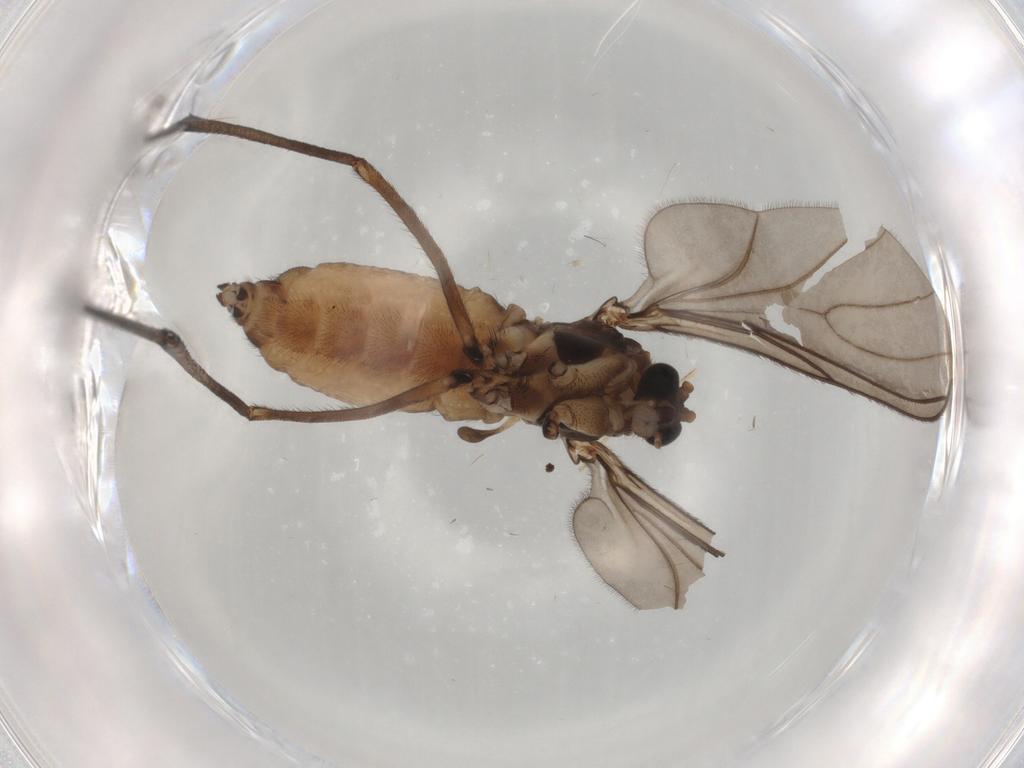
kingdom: Animalia
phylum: Arthropoda
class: Insecta
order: Diptera
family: Sciaridae
